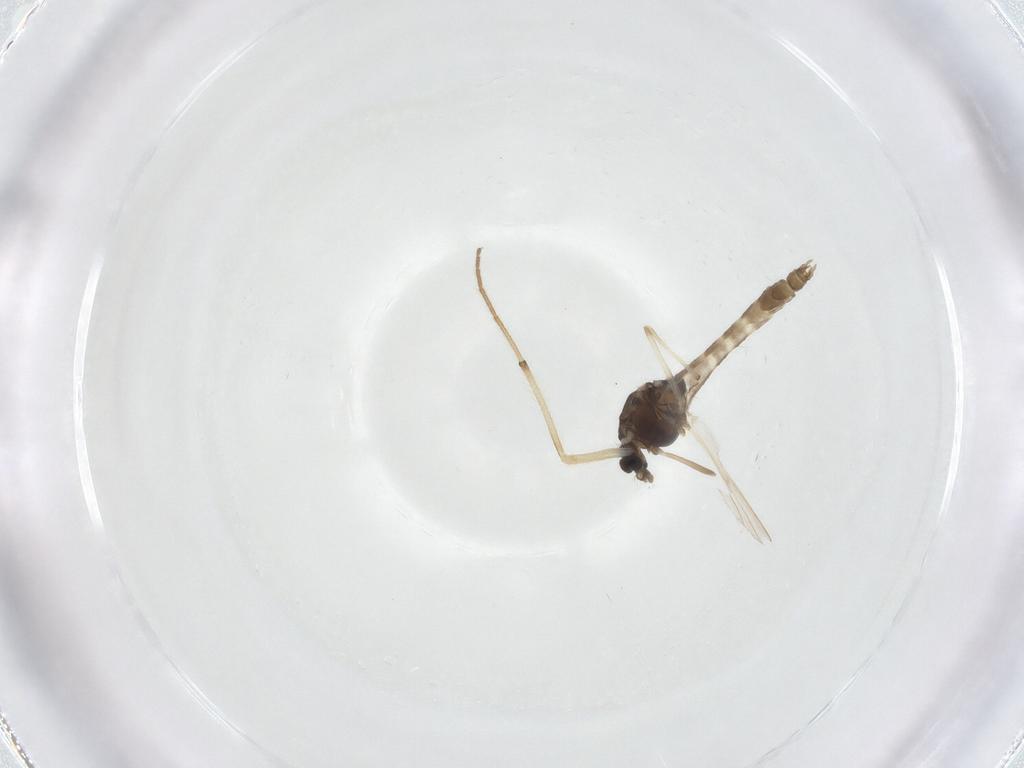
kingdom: Animalia
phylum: Arthropoda
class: Insecta
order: Diptera
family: Chironomidae
